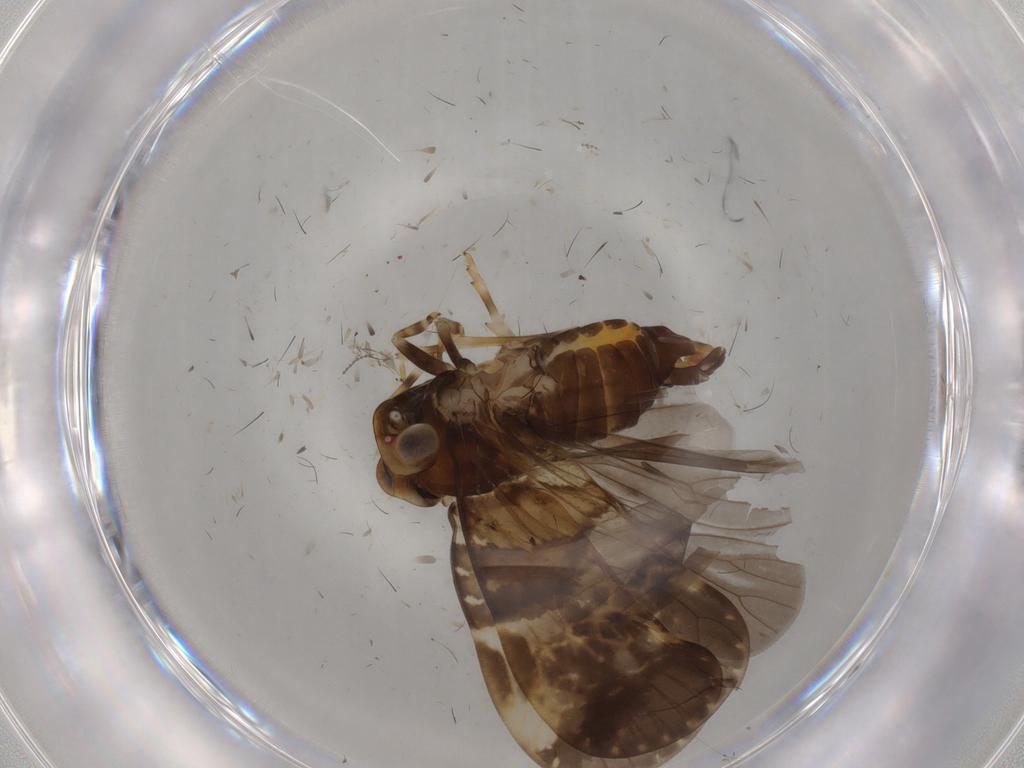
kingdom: Animalia
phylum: Arthropoda
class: Insecta
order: Hemiptera
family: Cixiidae
